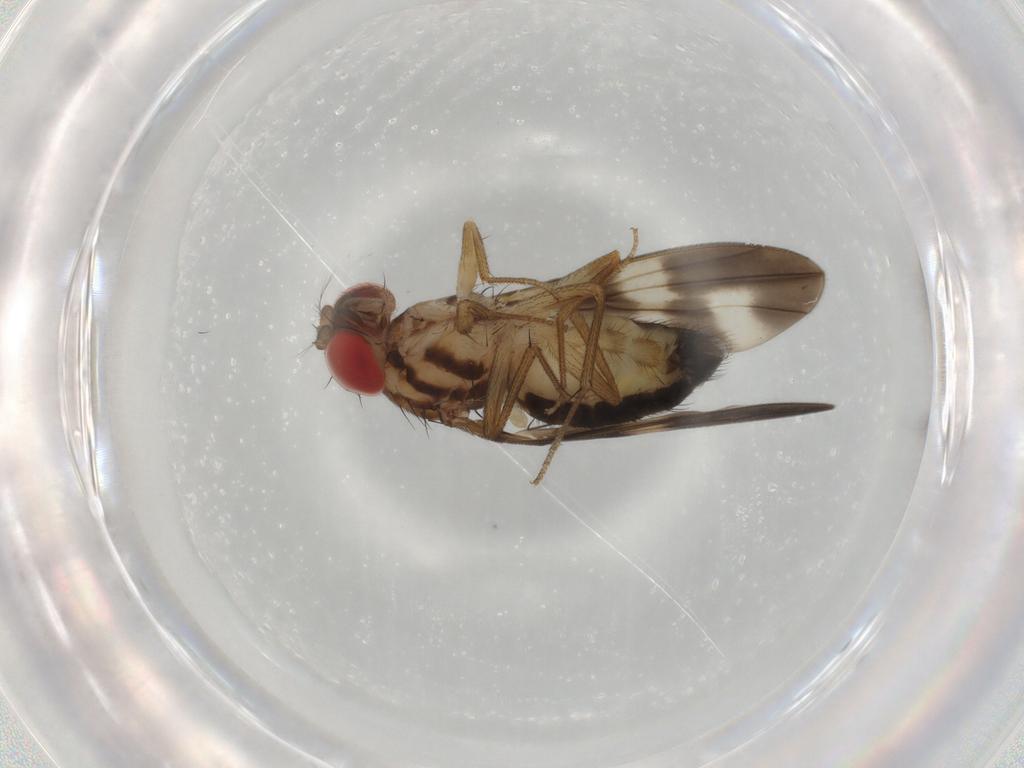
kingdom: Animalia
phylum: Arthropoda
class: Insecta
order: Diptera
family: Drosophilidae
